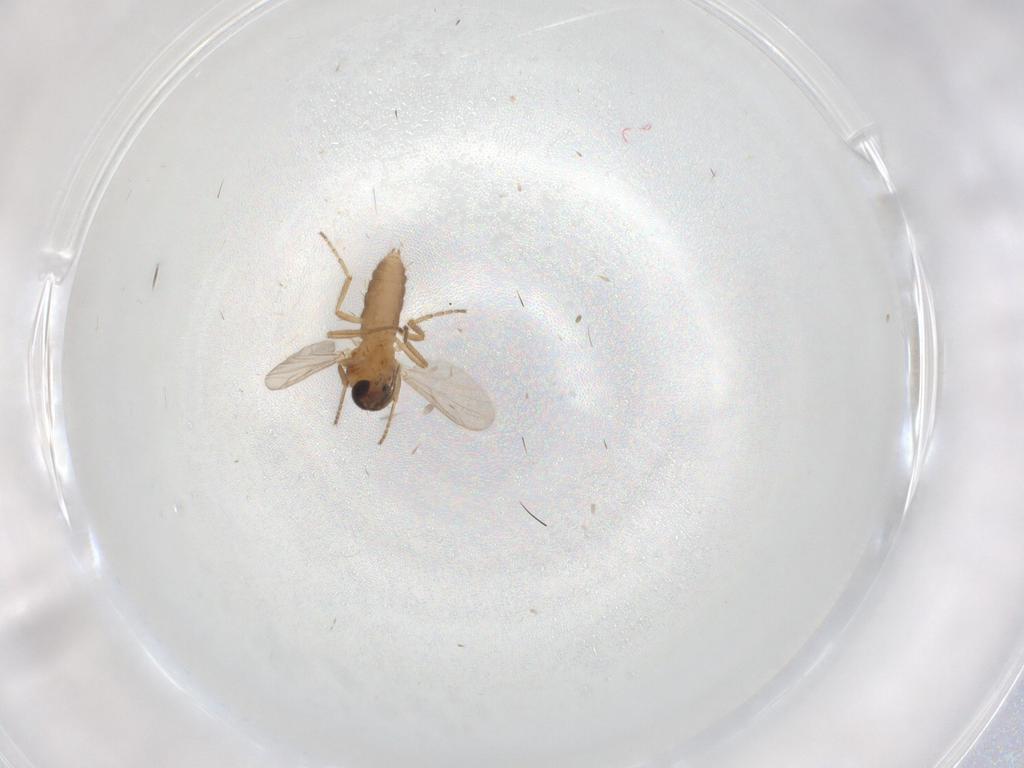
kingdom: Animalia
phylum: Arthropoda
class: Insecta
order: Diptera
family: Ceratopogonidae
